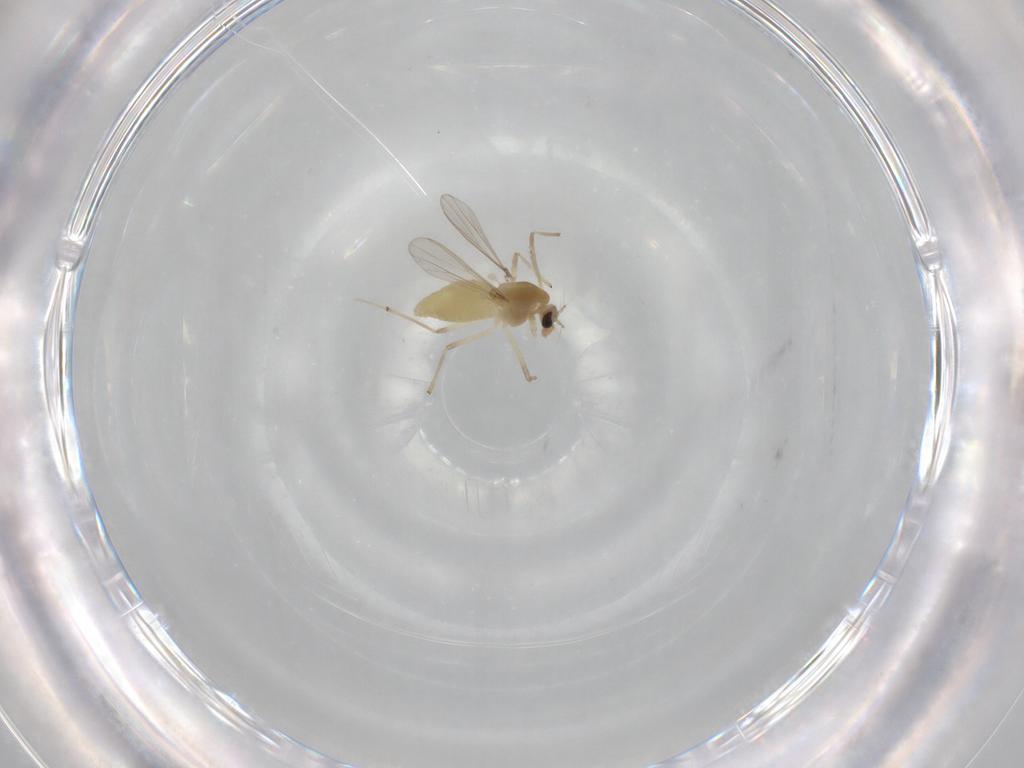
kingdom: Animalia
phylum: Arthropoda
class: Insecta
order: Diptera
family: Chironomidae
